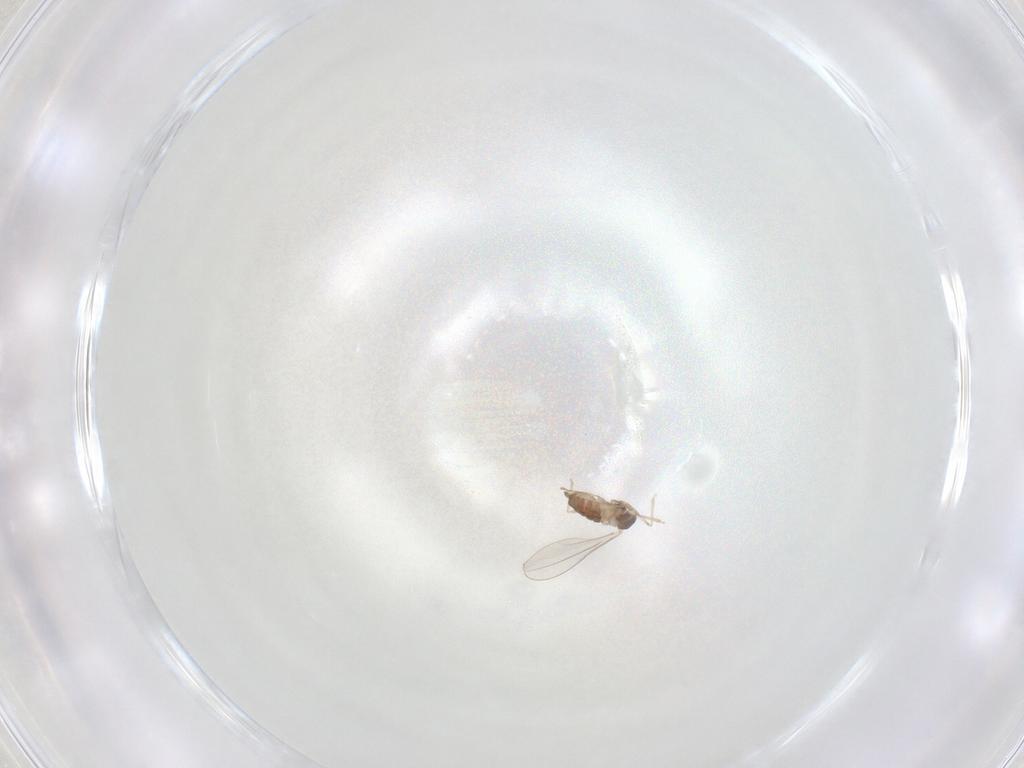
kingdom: Animalia
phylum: Arthropoda
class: Insecta
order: Diptera
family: Cecidomyiidae
